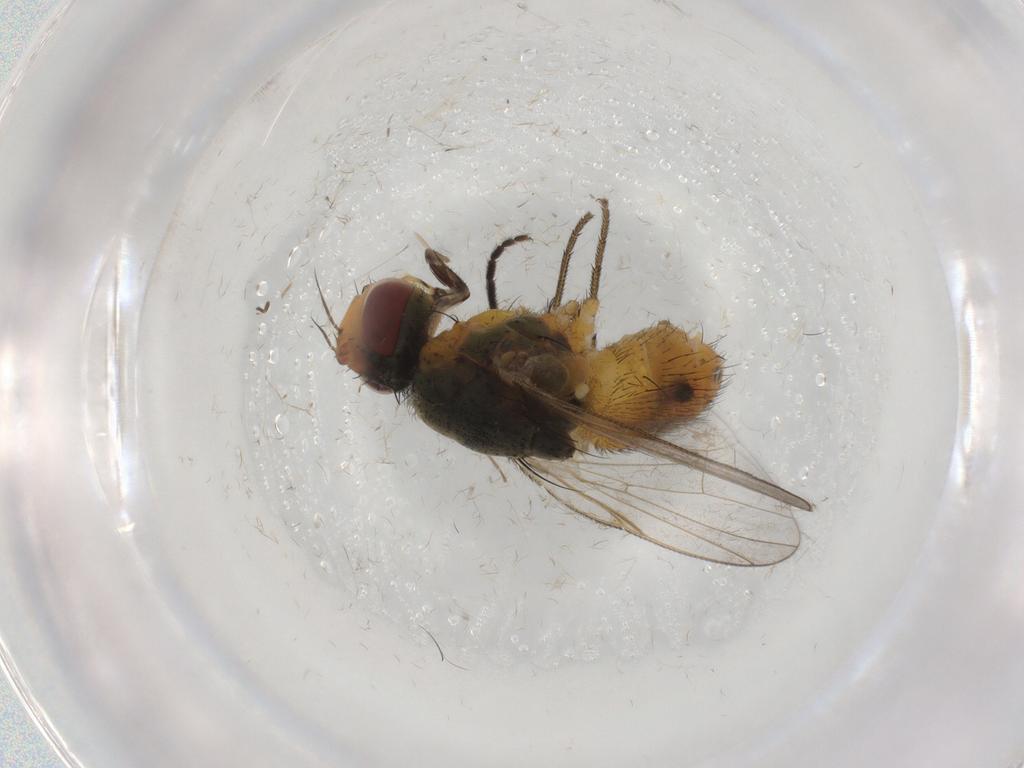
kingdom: Animalia
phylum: Arthropoda
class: Insecta
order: Diptera
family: Muscidae
